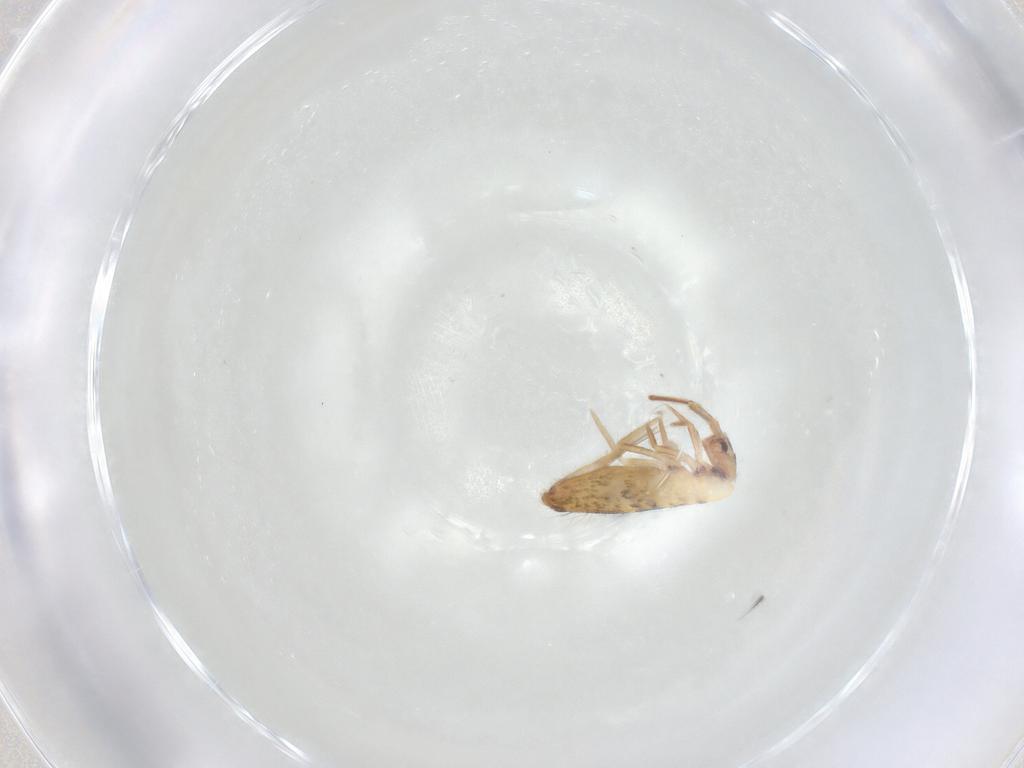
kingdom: Animalia
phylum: Arthropoda
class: Collembola
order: Entomobryomorpha
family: Entomobryidae
